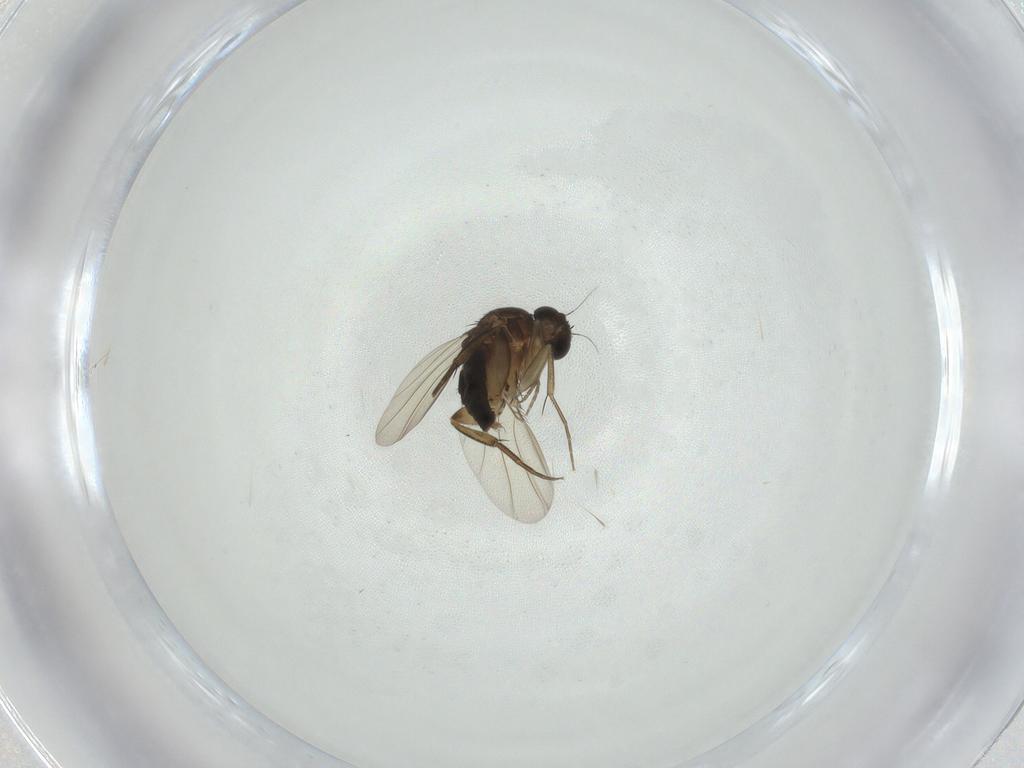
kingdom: Animalia
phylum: Arthropoda
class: Insecta
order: Diptera
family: Phoridae
